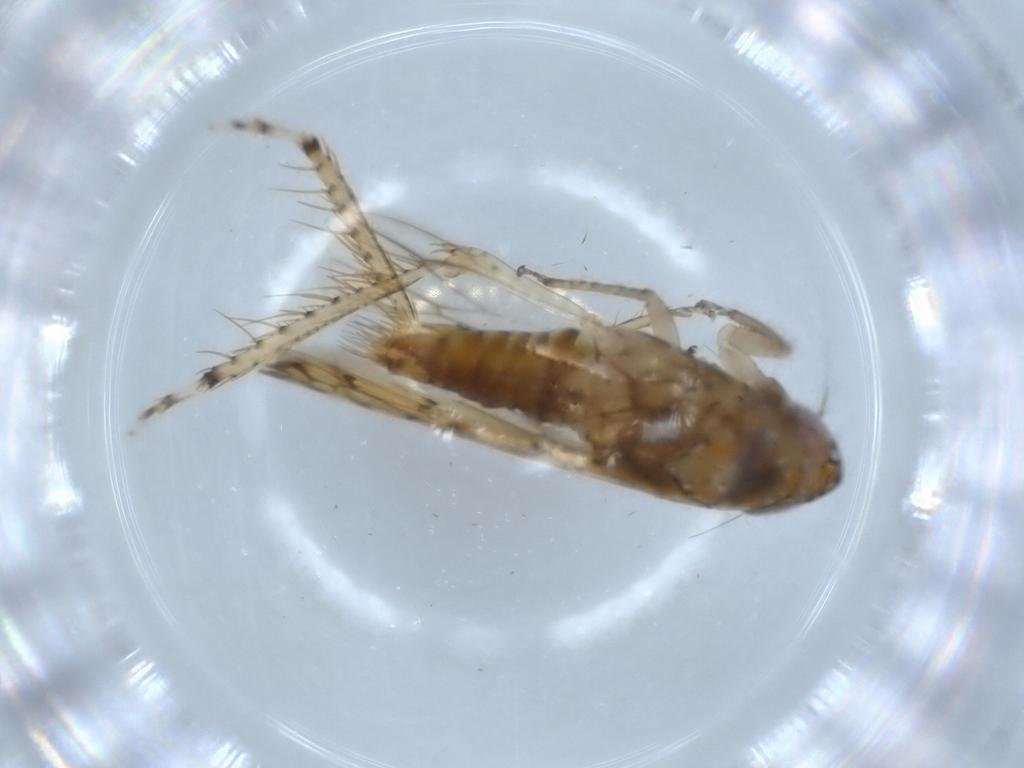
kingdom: Animalia
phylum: Arthropoda
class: Insecta
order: Hemiptera
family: Cicadellidae
